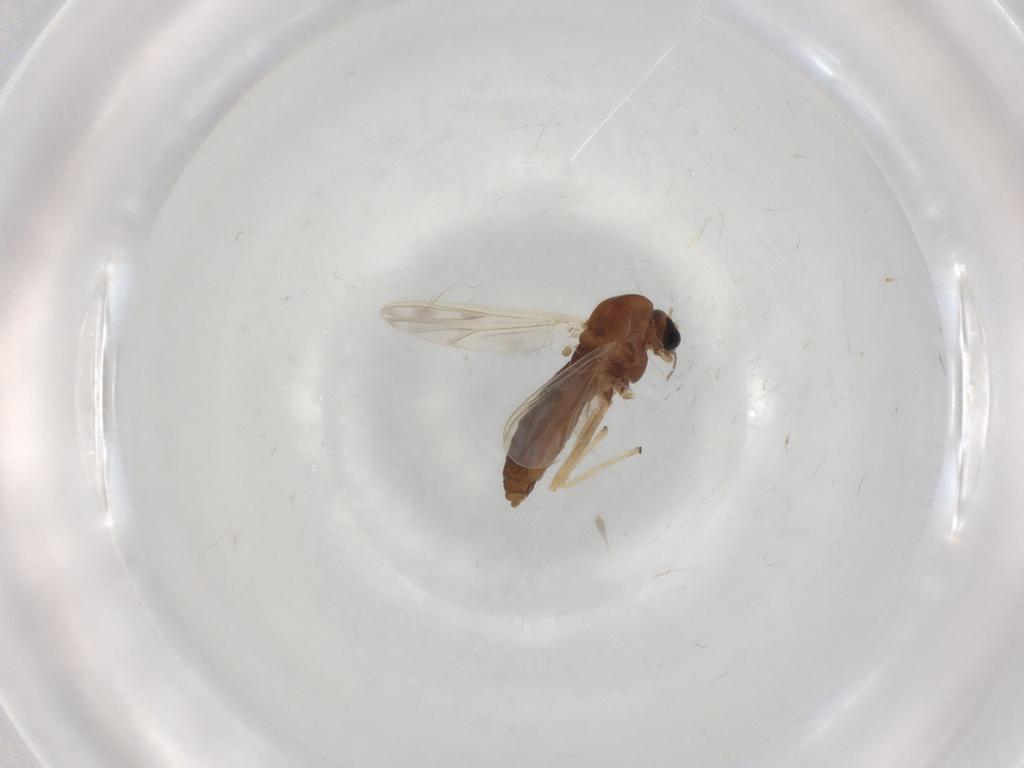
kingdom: Animalia
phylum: Arthropoda
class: Insecta
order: Diptera
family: Chironomidae
